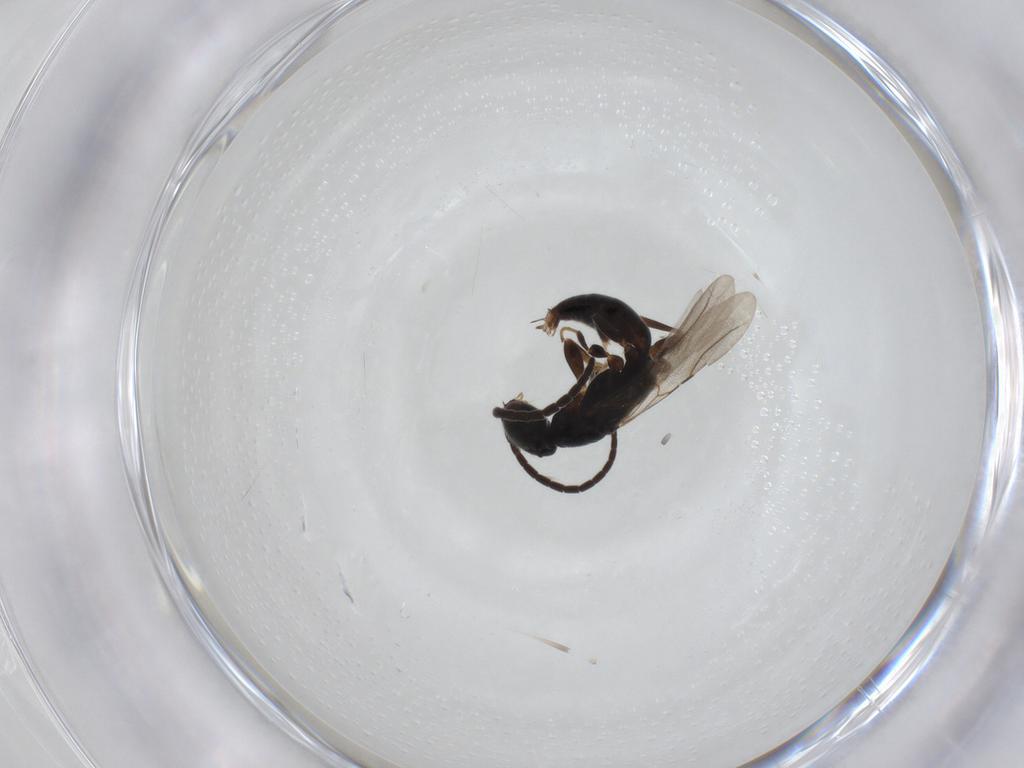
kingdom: Animalia
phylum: Arthropoda
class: Insecta
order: Hymenoptera
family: Bethylidae
